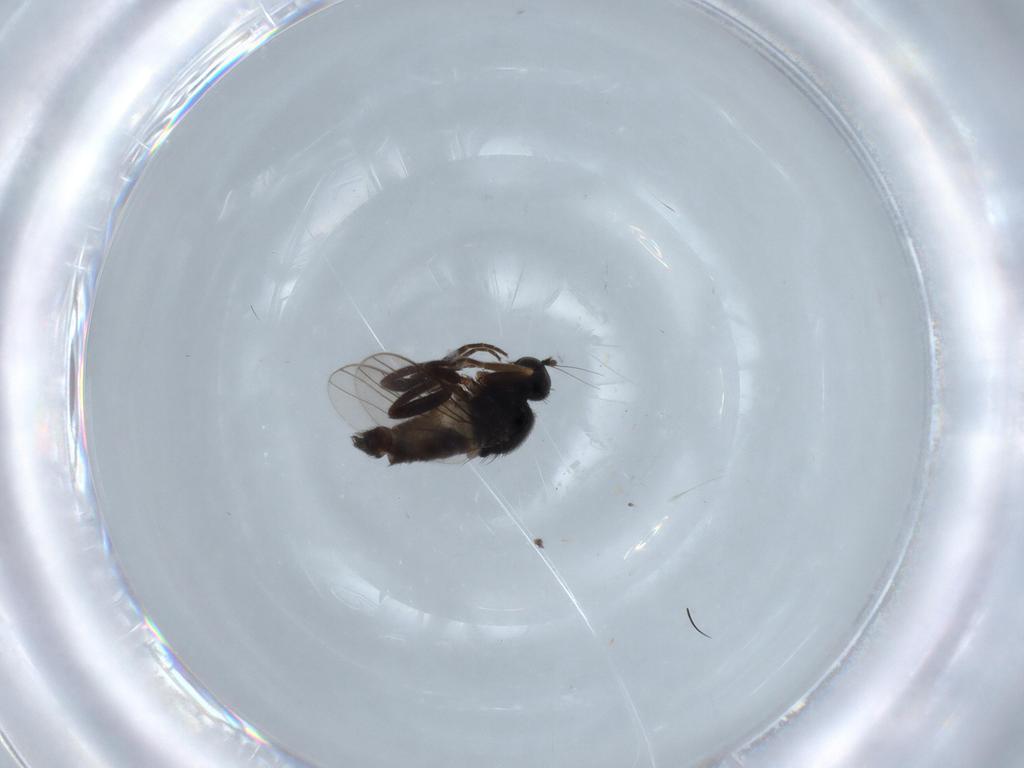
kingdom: Animalia
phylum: Arthropoda
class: Insecta
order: Diptera
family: Hybotidae
